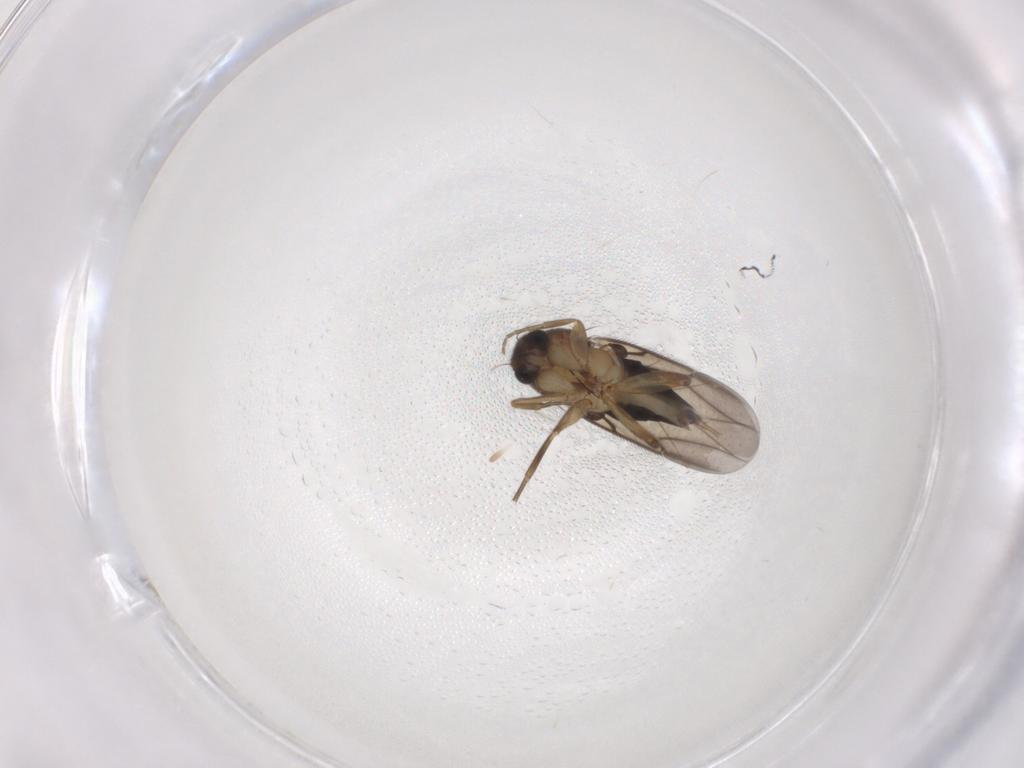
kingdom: Animalia
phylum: Arthropoda
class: Insecta
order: Diptera
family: Phoridae
